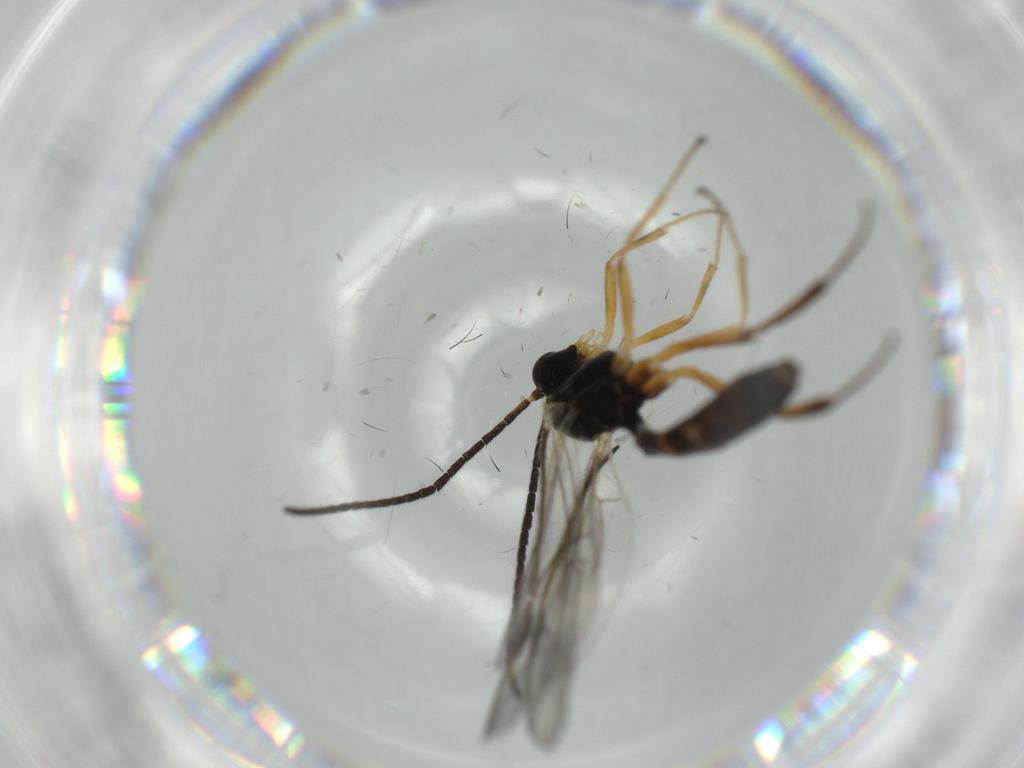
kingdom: Animalia
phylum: Arthropoda
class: Insecta
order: Hymenoptera
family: Ichneumonidae
